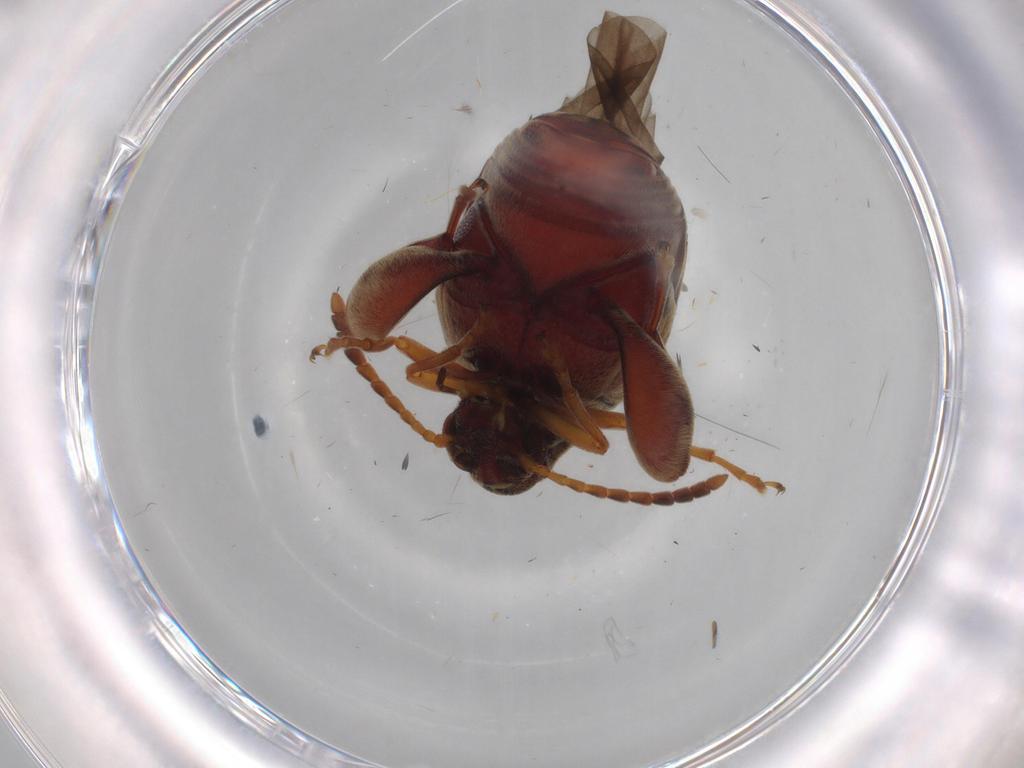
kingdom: Animalia
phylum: Arthropoda
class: Insecta
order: Coleoptera
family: Chrysomelidae
